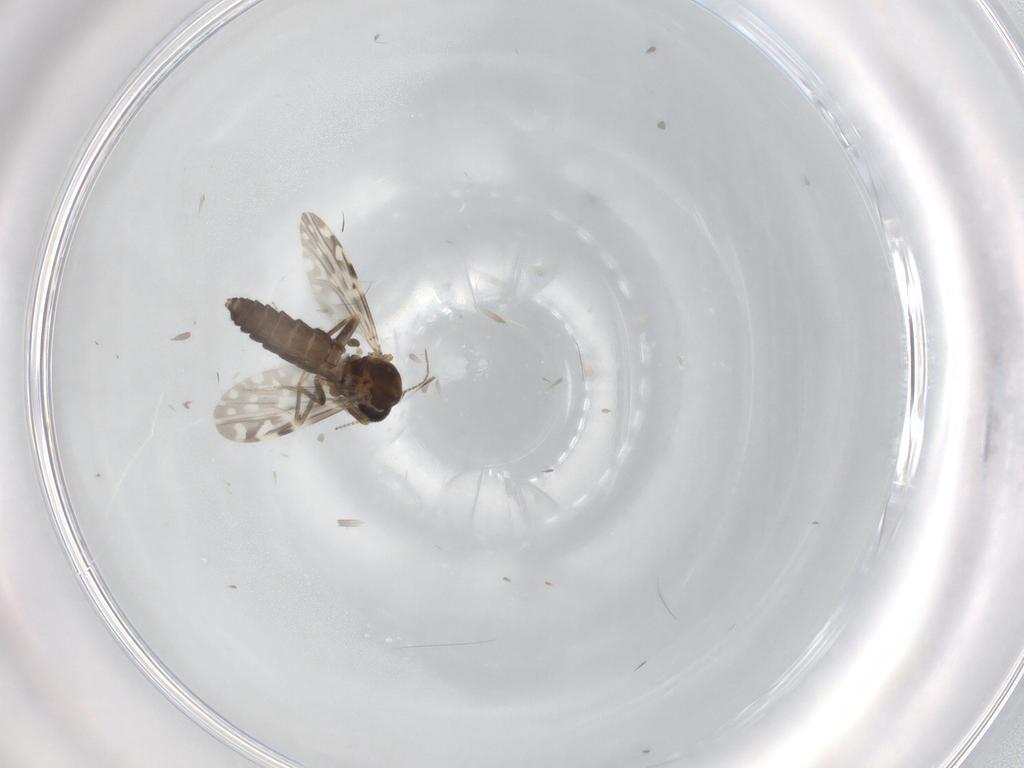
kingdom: Animalia
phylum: Arthropoda
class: Insecta
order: Diptera
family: Ceratopogonidae
